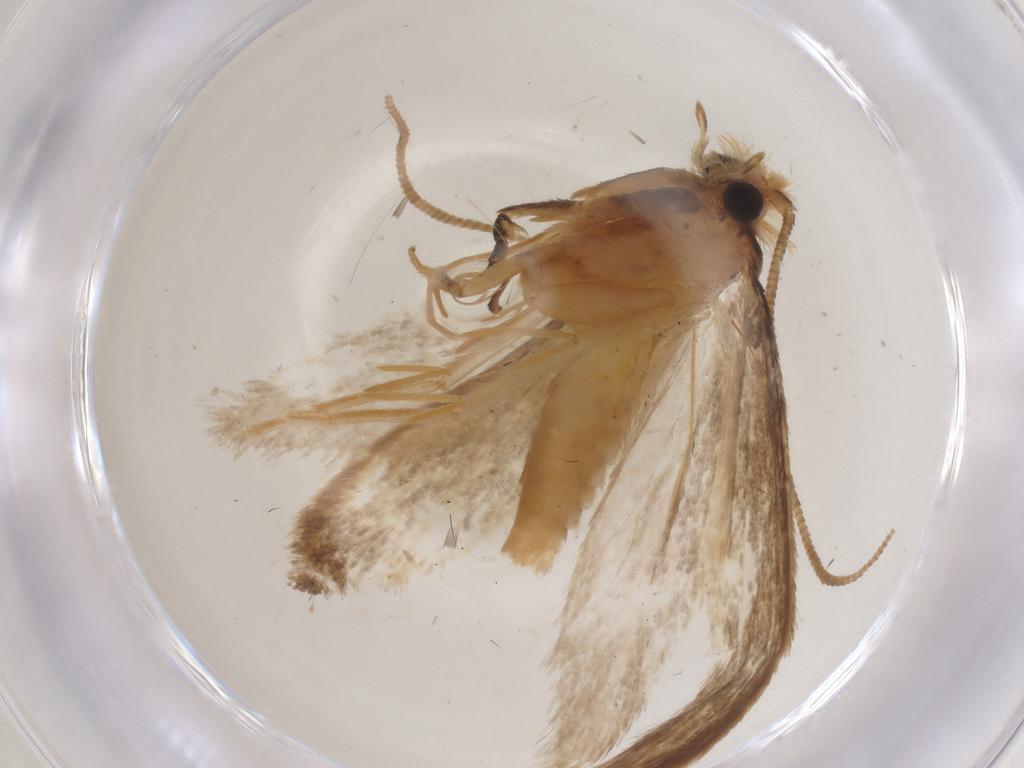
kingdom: Animalia
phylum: Arthropoda
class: Insecta
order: Lepidoptera
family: Tineidae
